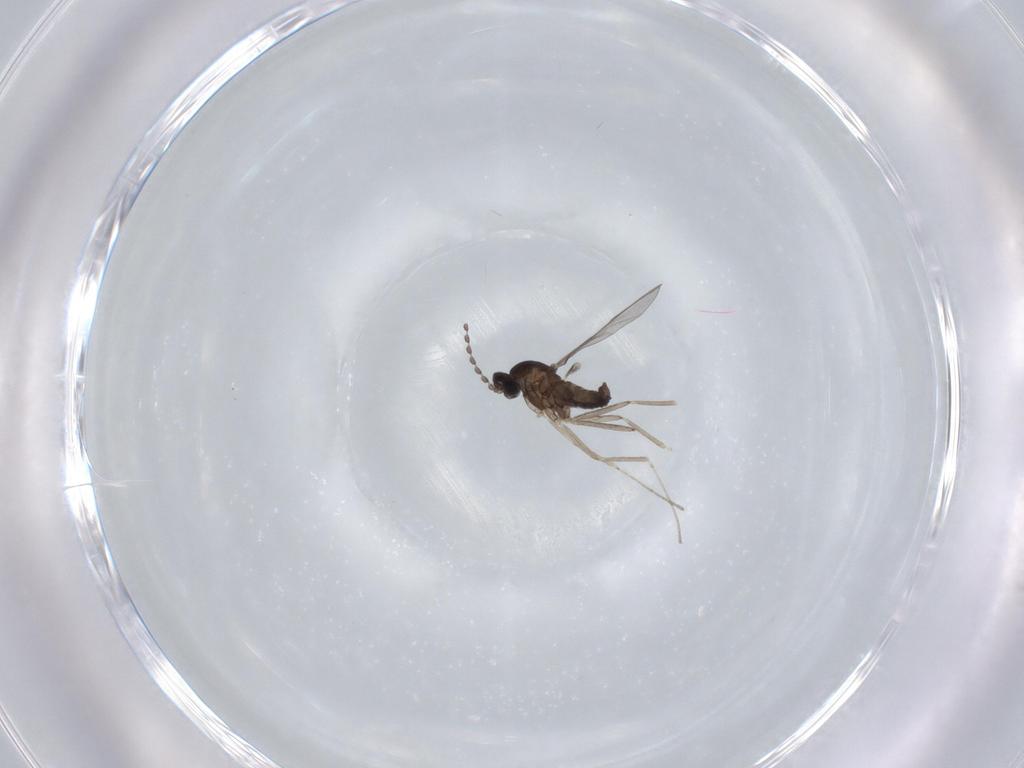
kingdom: Animalia
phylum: Arthropoda
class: Insecta
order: Diptera
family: Cecidomyiidae
